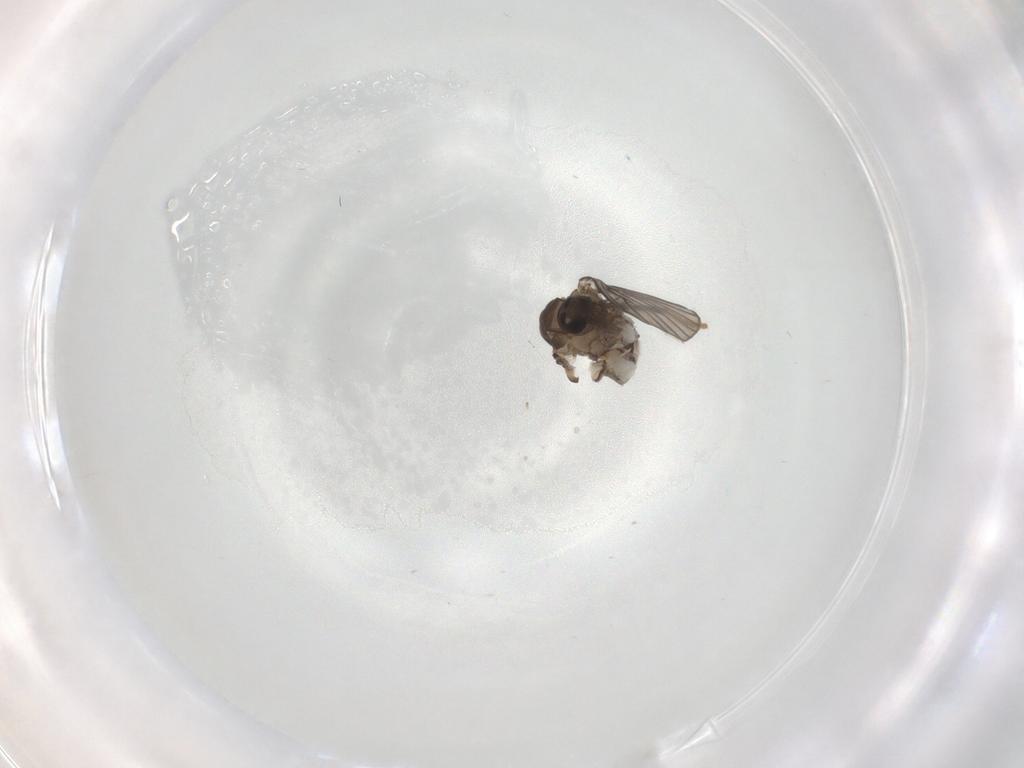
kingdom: Animalia
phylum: Arthropoda
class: Insecta
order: Diptera
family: Psychodidae
